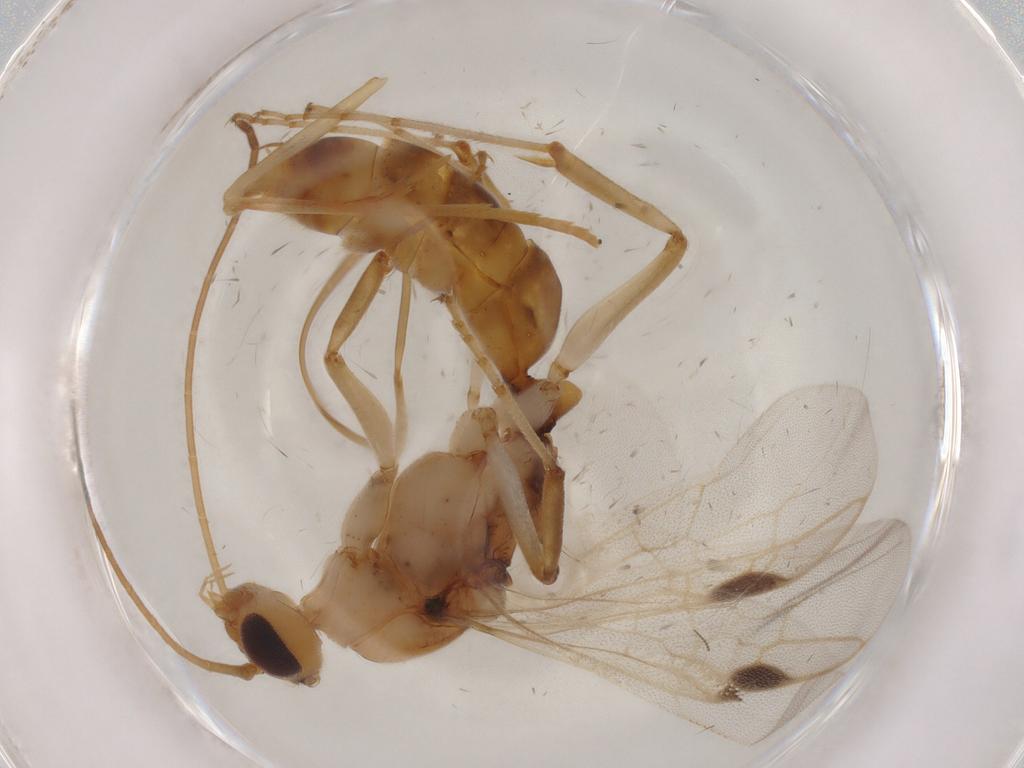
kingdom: Animalia
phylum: Arthropoda
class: Insecta
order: Hymenoptera
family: Formicidae
